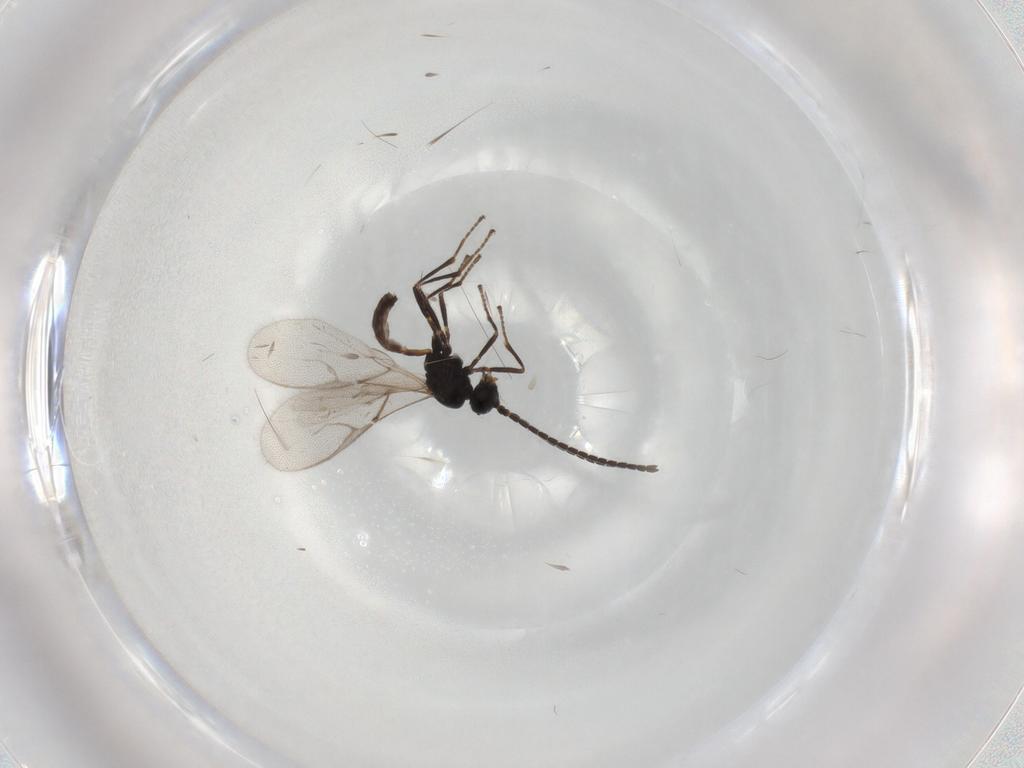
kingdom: Animalia
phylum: Arthropoda
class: Insecta
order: Hymenoptera
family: Braconidae
